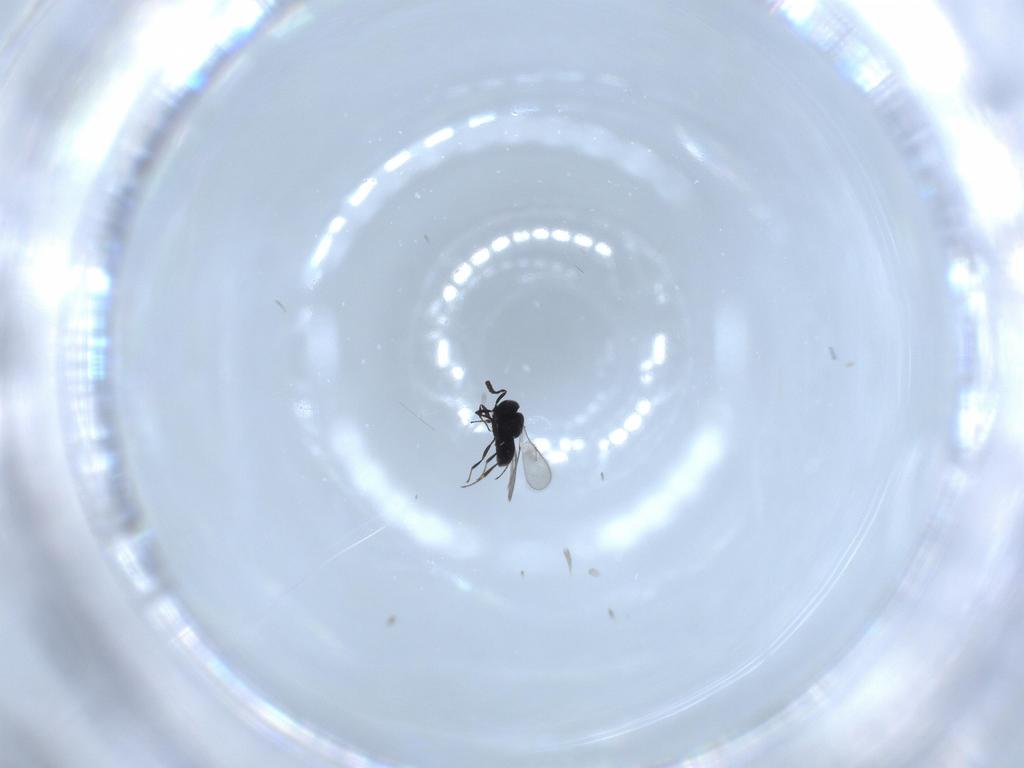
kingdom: Animalia
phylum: Arthropoda
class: Insecta
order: Hymenoptera
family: Scelionidae
